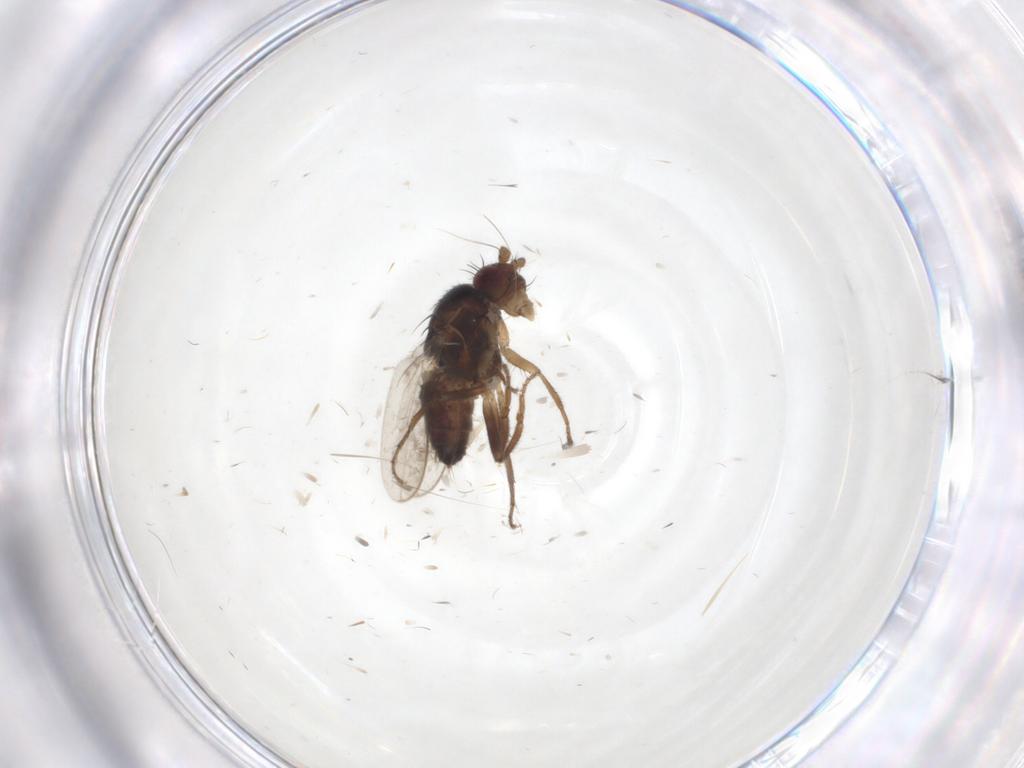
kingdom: Animalia
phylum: Arthropoda
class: Insecta
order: Diptera
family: Sphaeroceridae
